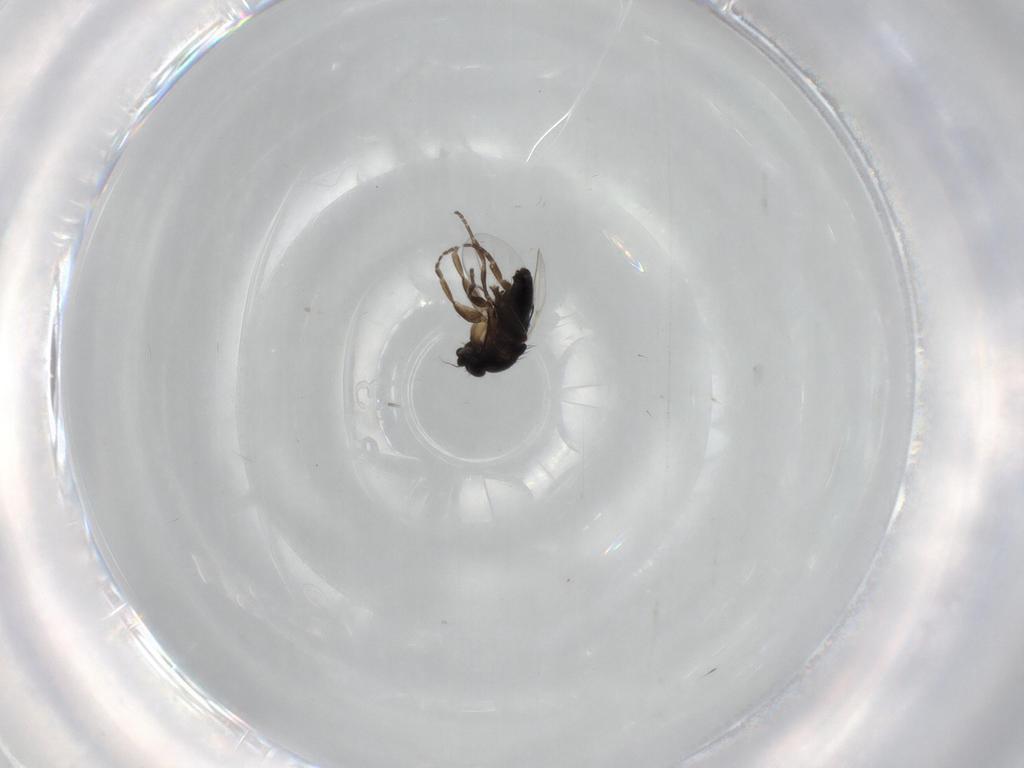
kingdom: Animalia
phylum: Arthropoda
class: Insecta
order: Diptera
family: Phoridae
